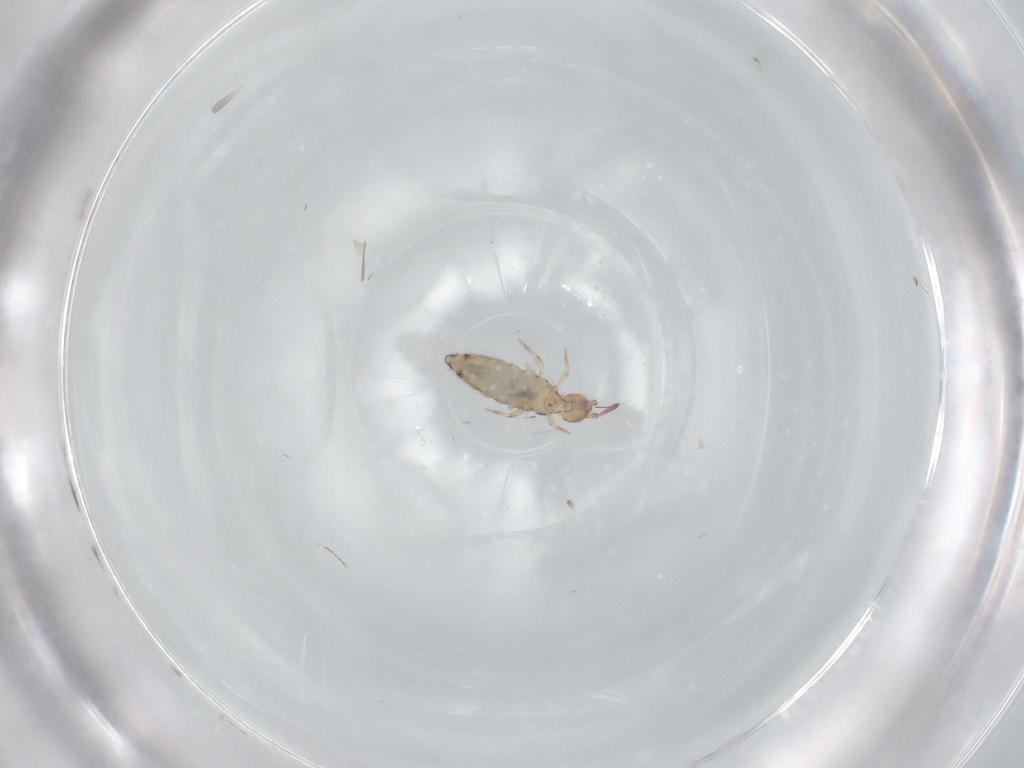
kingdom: Animalia
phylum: Arthropoda
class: Insecta
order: Diptera
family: Chironomidae
